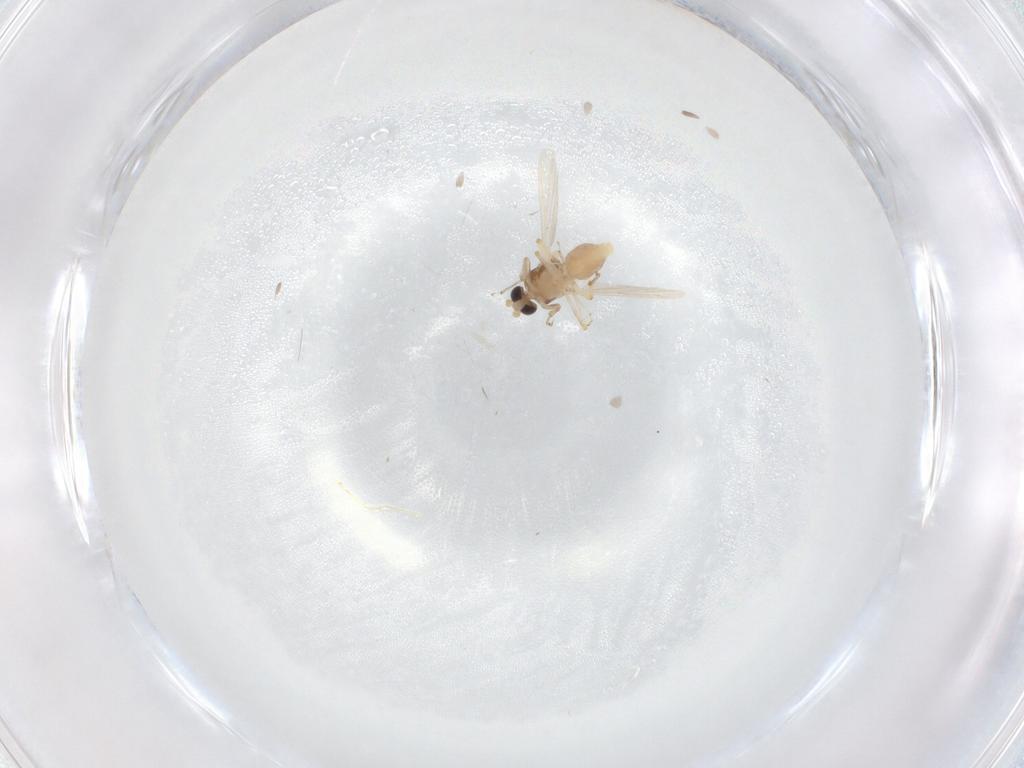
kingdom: Animalia
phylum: Arthropoda
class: Insecta
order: Diptera
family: Ceratopogonidae
